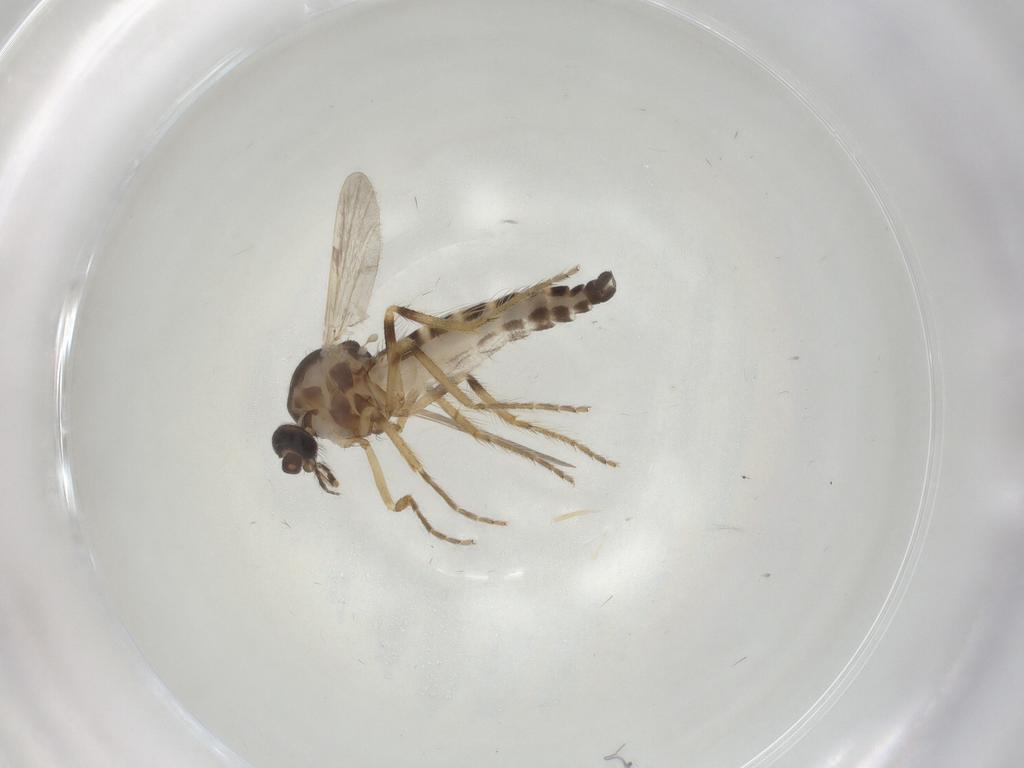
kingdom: Animalia
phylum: Arthropoda
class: Insecta
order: Diptera
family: Ceratopogonidae
